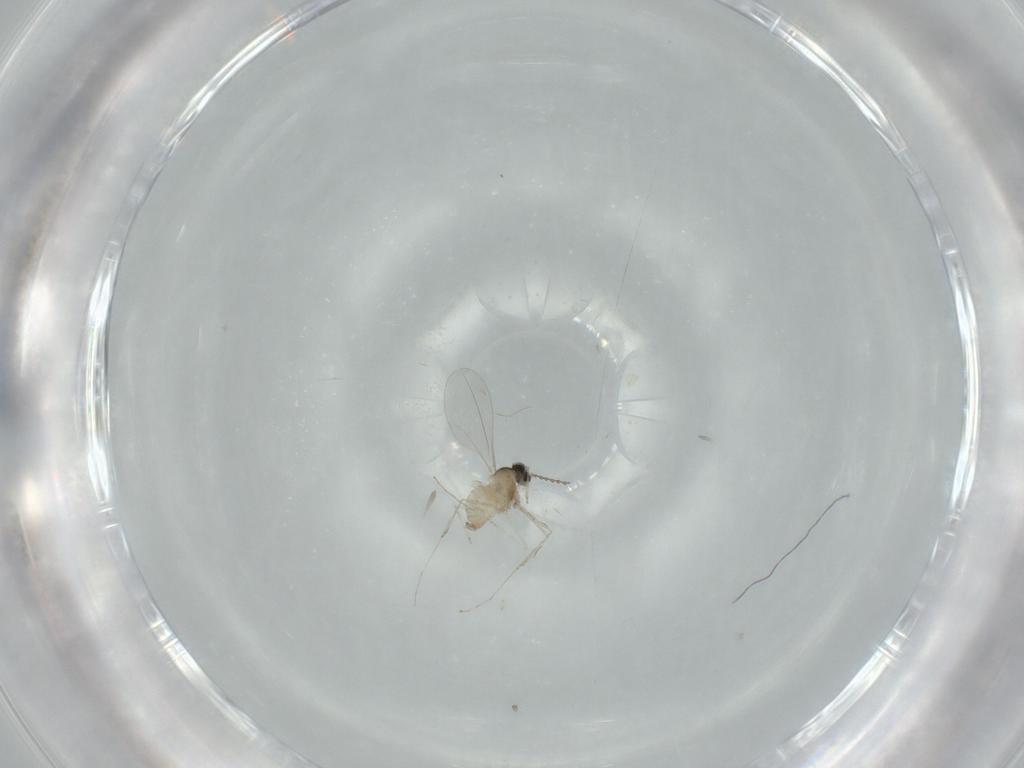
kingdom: Animalia
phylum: Arthropoda
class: Insecta
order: Diptera
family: Cecidomyiidae
